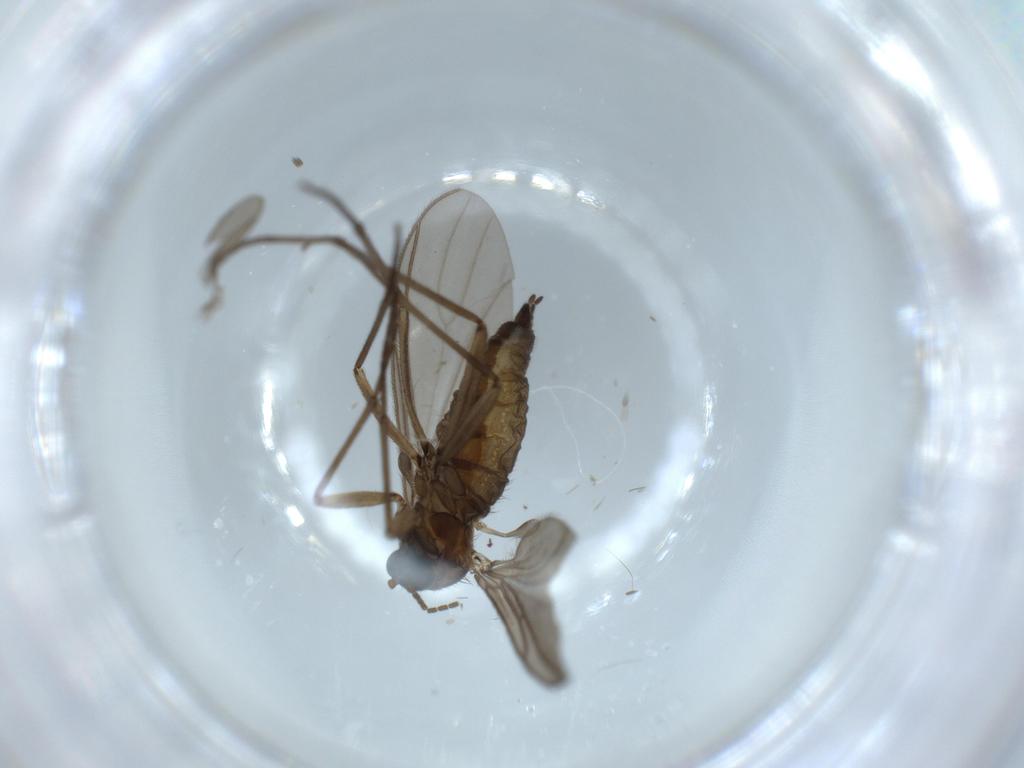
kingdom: Animalia
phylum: Arthropoda
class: Insecta
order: Diptera
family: Sciaridae
